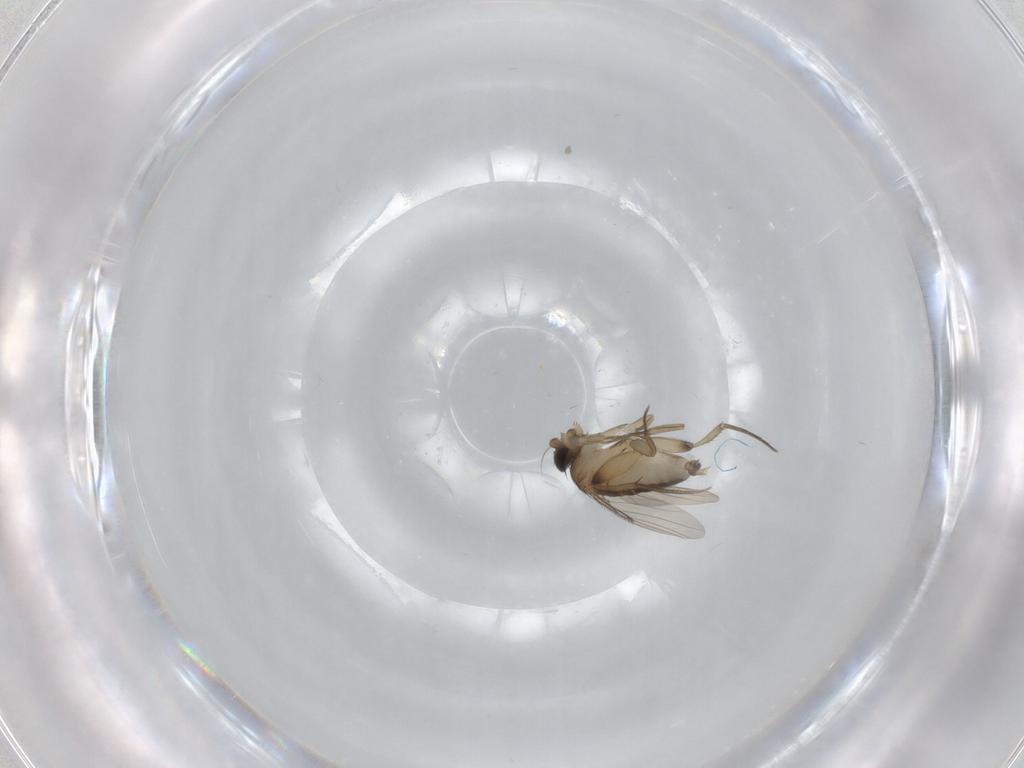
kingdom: Animalia
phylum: Arthropoda
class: Insecta
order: Diptera
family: Phoridae
